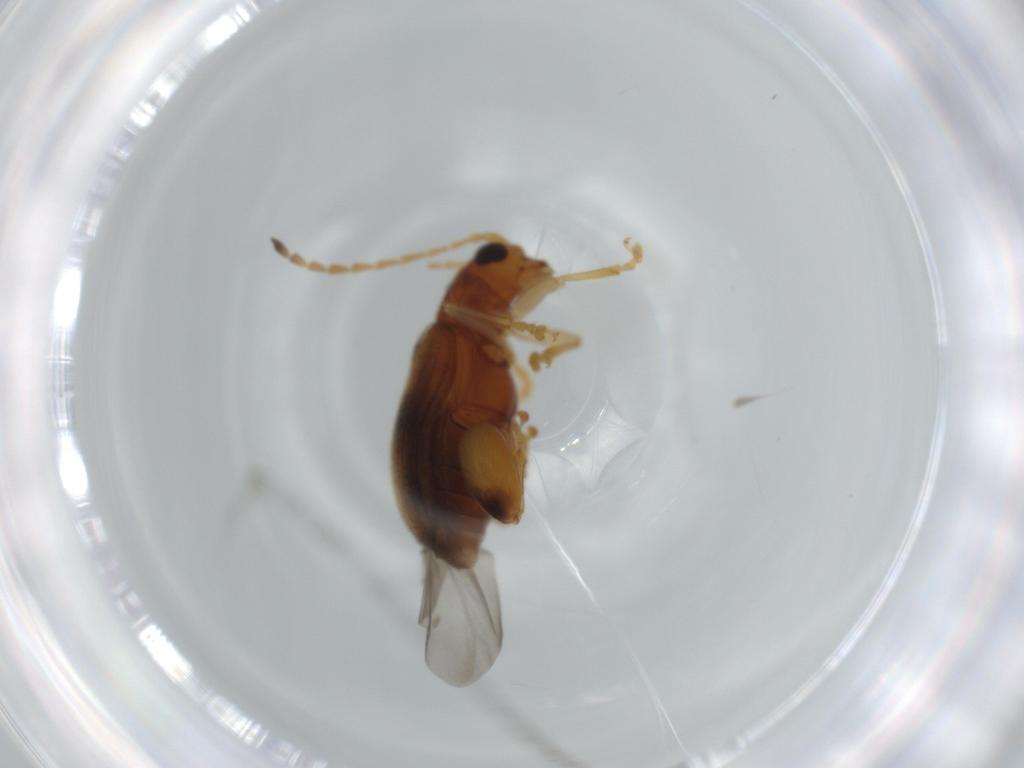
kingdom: Animalia
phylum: Arthropoda
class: Insecta
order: Coleoptera
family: Chrysomelidae
